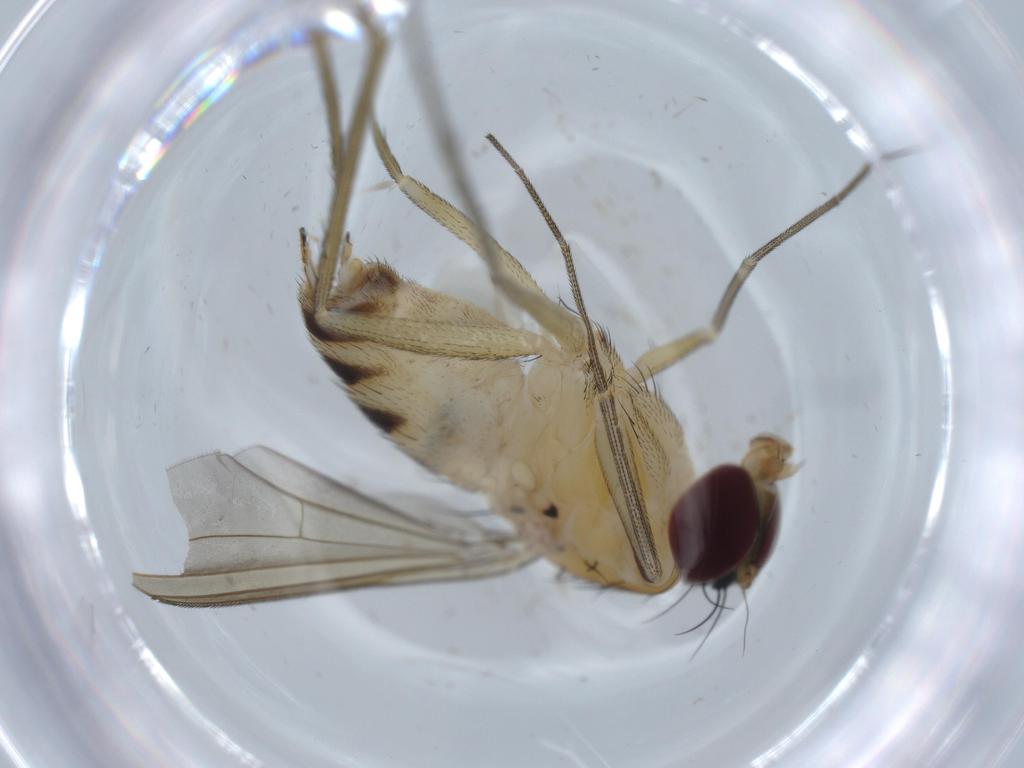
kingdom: Animalia
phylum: Arthropoda
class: Insecta
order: Diptera
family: Dolichopodidae
